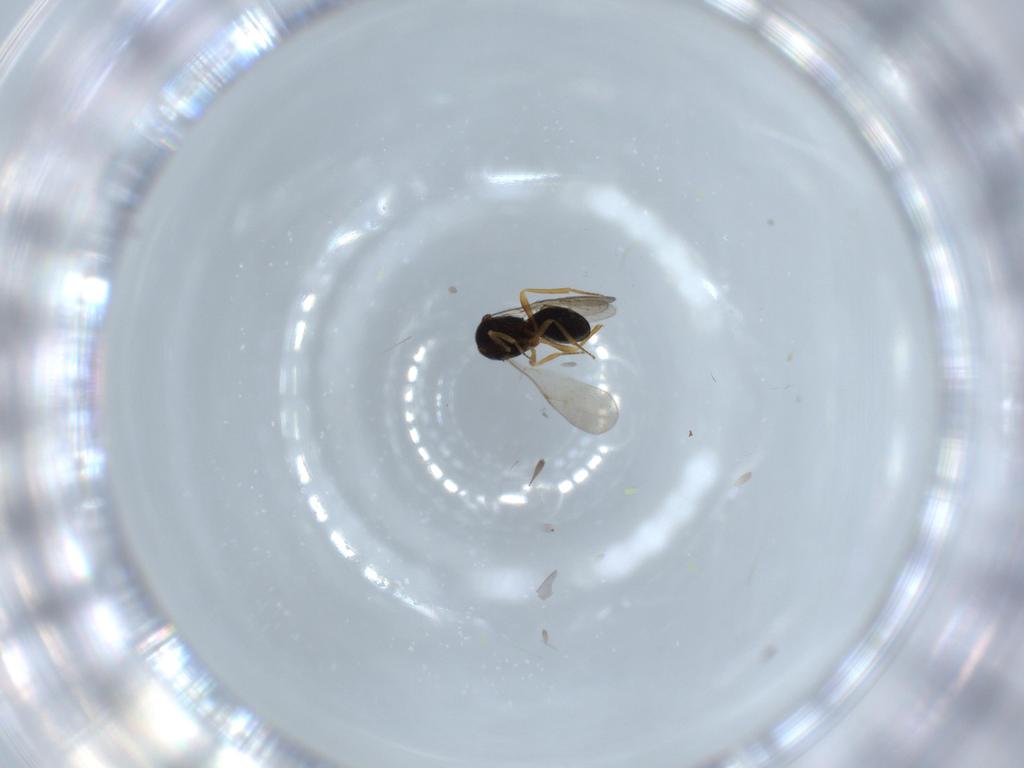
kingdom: Animalia
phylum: Arthropoda
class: Insecta
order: Hymenoptera
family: Scelionidae
